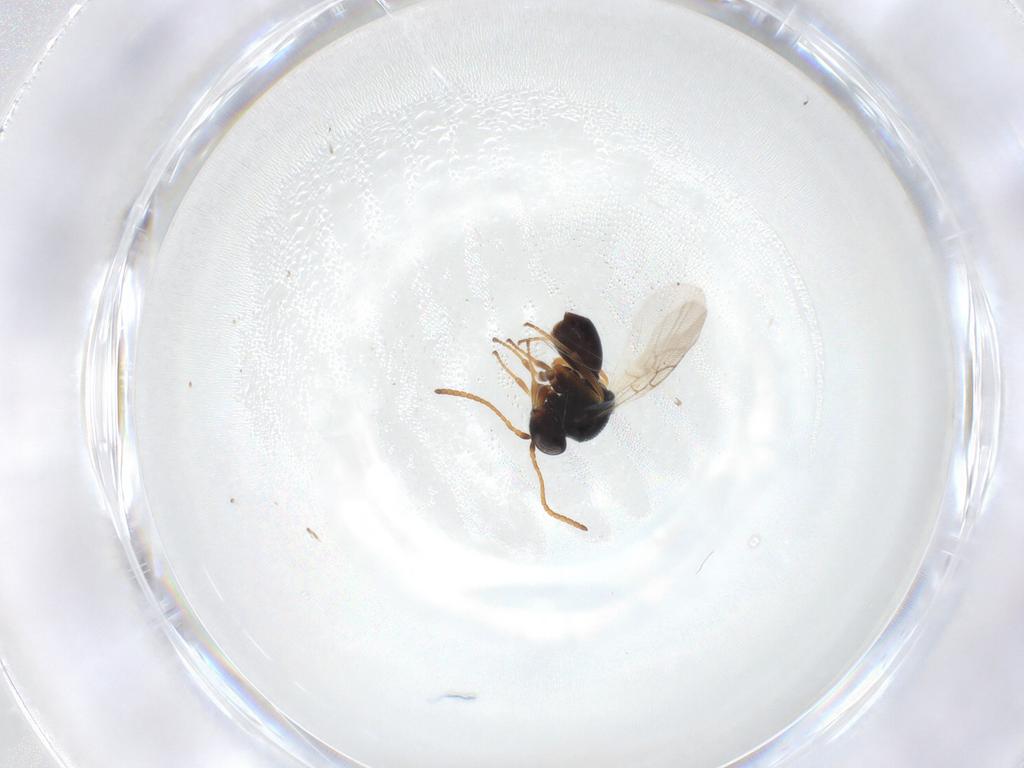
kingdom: Animalia
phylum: Arthropoda
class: Insecta
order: Hymenoptera
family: Cynipidae
